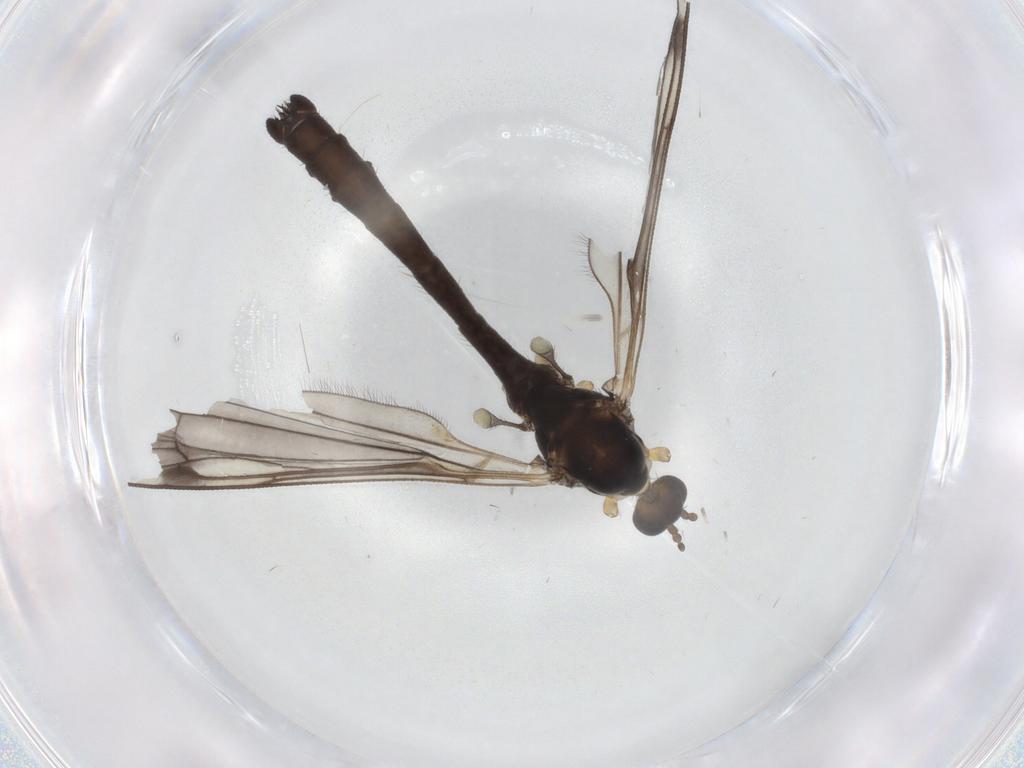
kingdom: Animalia
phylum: Arthropoda
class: Insecta
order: Diptera
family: Limoniidae
